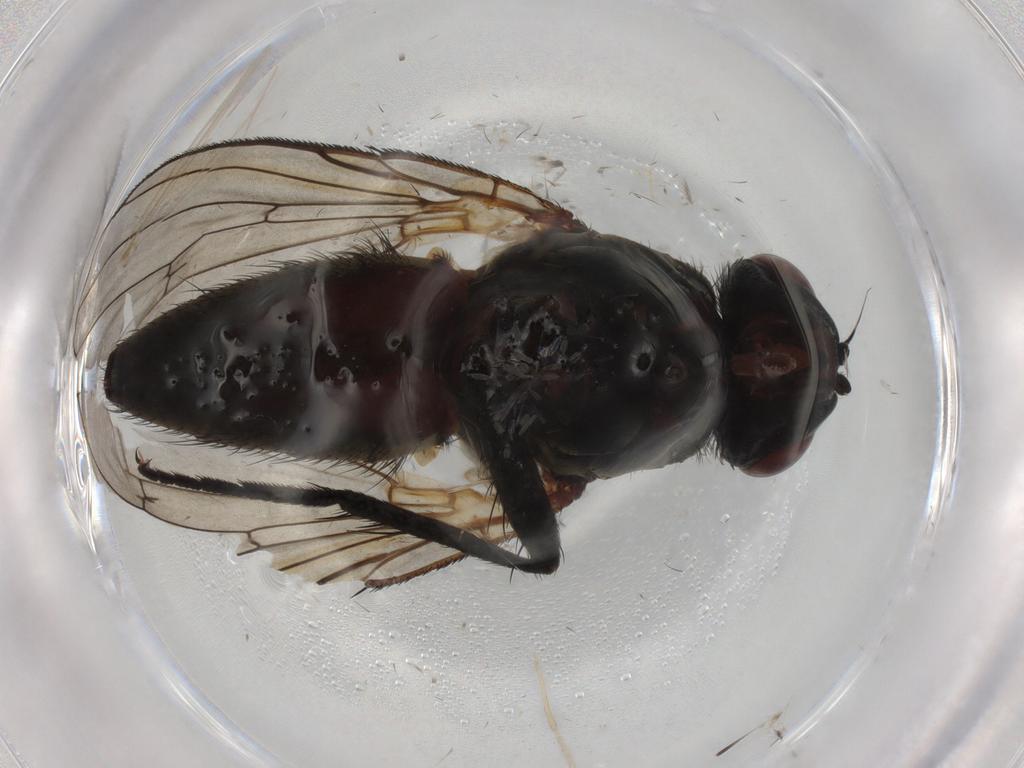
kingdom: Animalia
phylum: Arthropoda
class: Insecta
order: Diptera
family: Anthomyiidae
